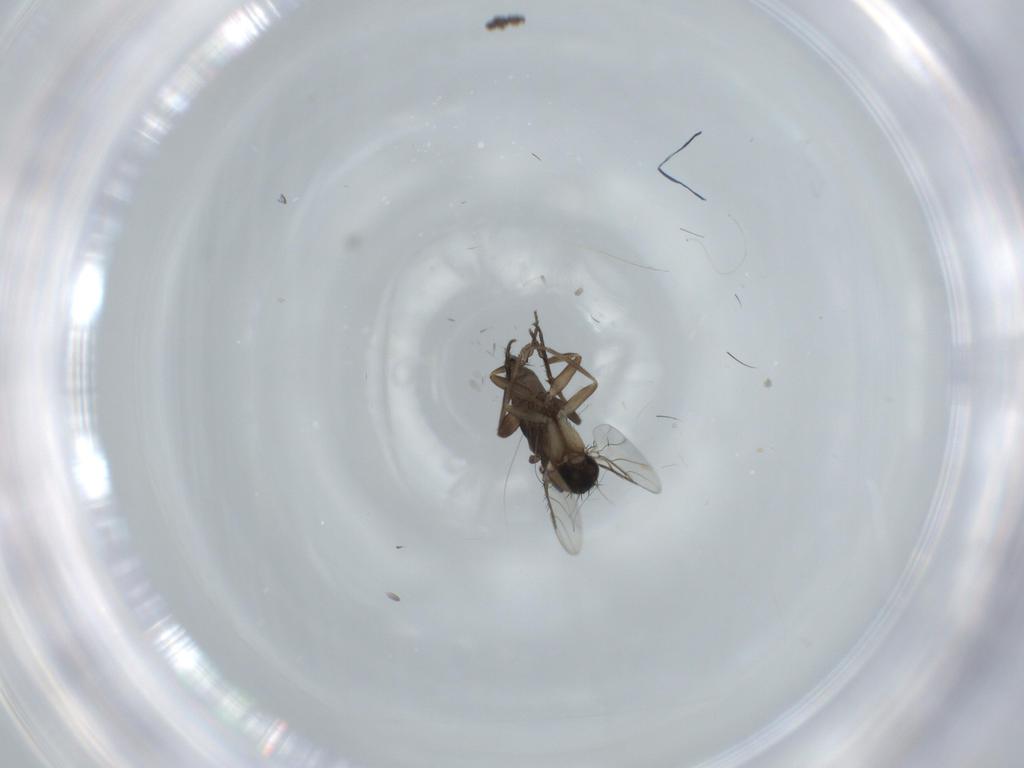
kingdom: Animalia
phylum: Arthropoda
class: Insecta
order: Diptera
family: Phoridae
